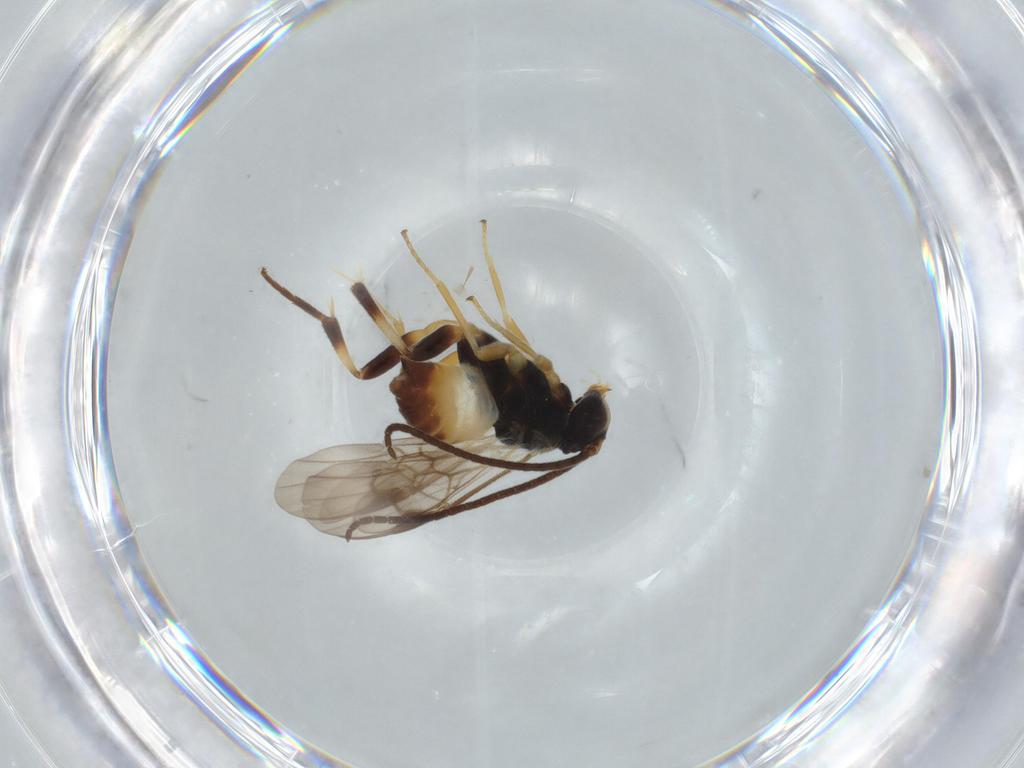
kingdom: Animalia
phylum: Arthropoda
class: Insecta
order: Hymenoptera
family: Braconidae
